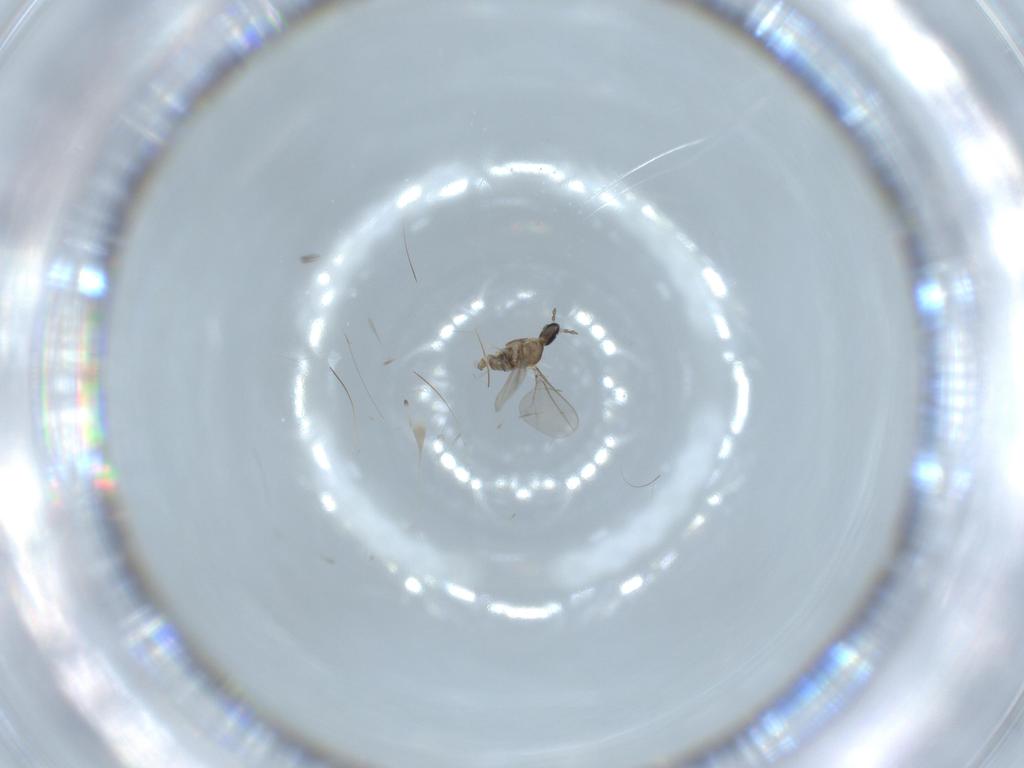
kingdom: Animalia
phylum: Arthropoda
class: Insecta
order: Diptera
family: Cecidomyiidae
